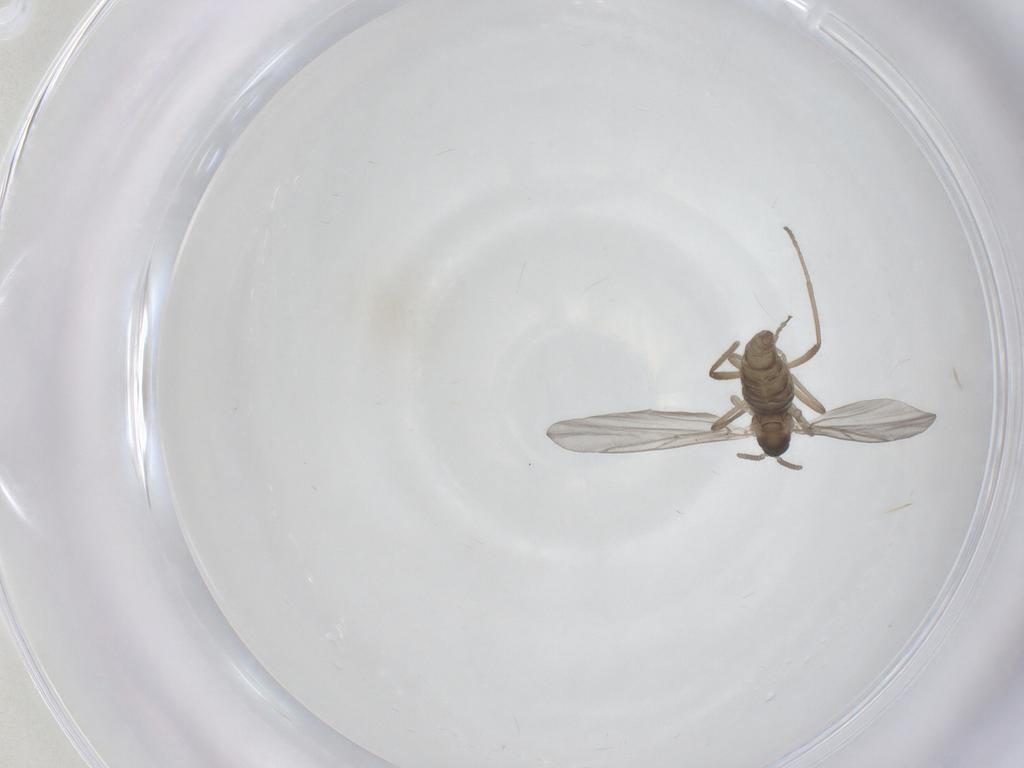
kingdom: Animalia
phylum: Arthropoda
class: Insecta
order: Diptera
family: Cecidomyiidae
